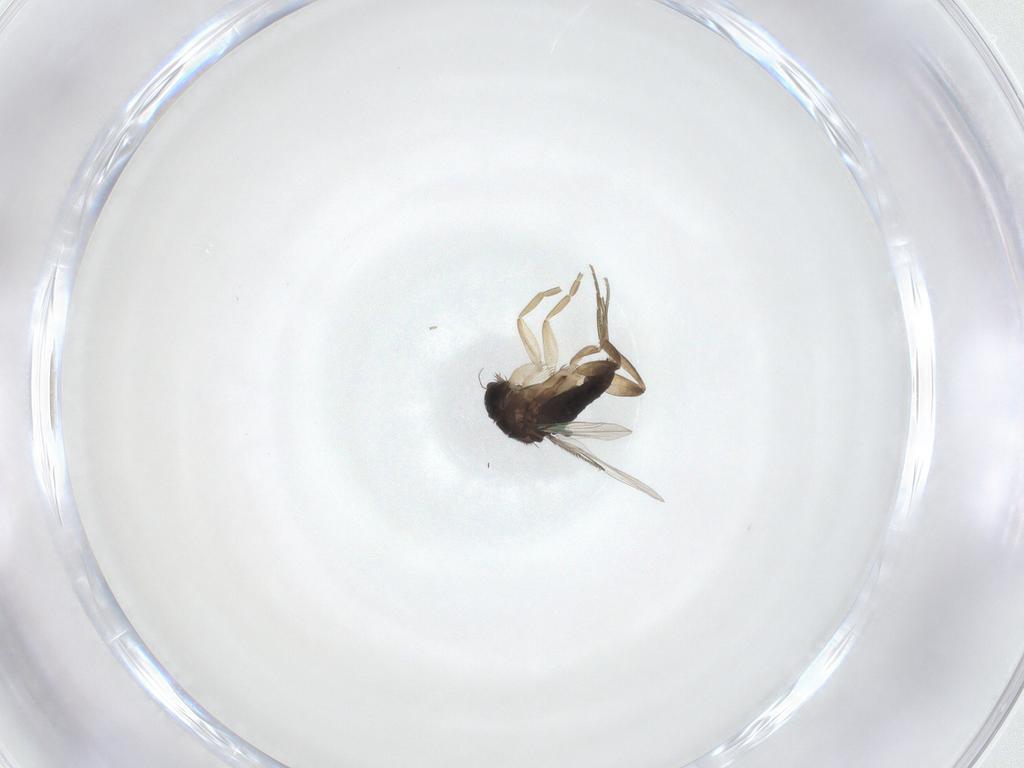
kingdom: Animalia
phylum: Arthropoda
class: Insecta
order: Diptera
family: Phoridae
